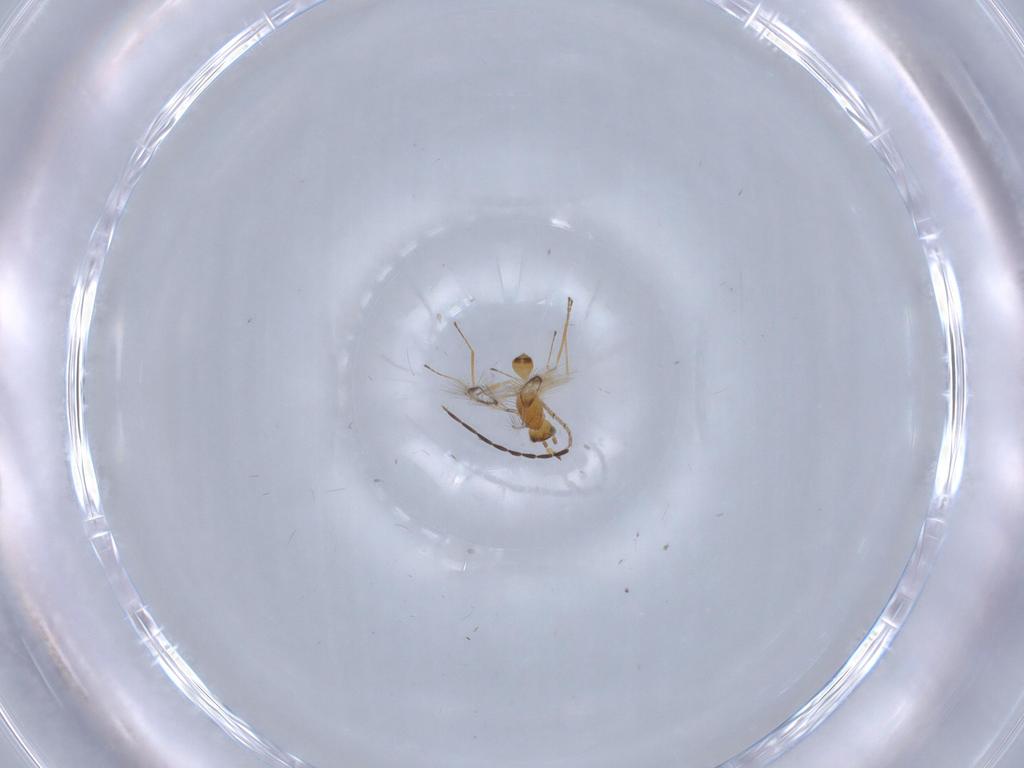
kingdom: Animalia
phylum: Arthropoda
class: Insecta
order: Hymenoptera
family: Mymaridae
